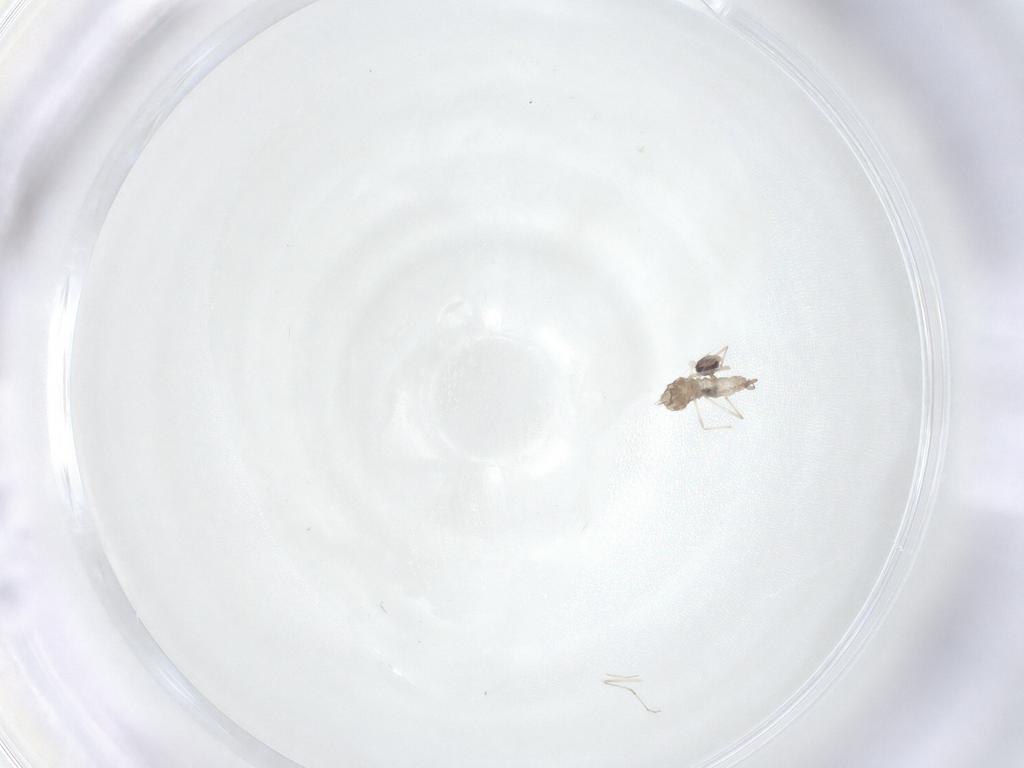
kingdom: Animalia
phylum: Arthropoda
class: Insecta
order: Diptera
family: Cecidomyiidae
